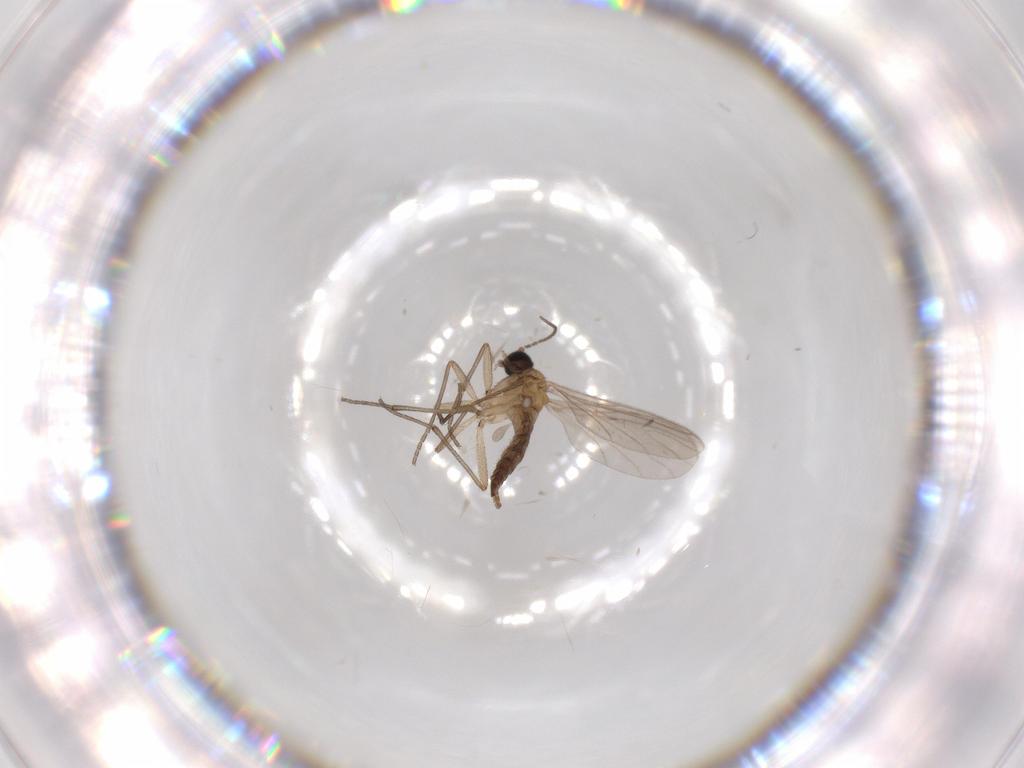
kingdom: Animalia
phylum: Arthropoda
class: Insecta
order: Diptera
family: Sciaridae
